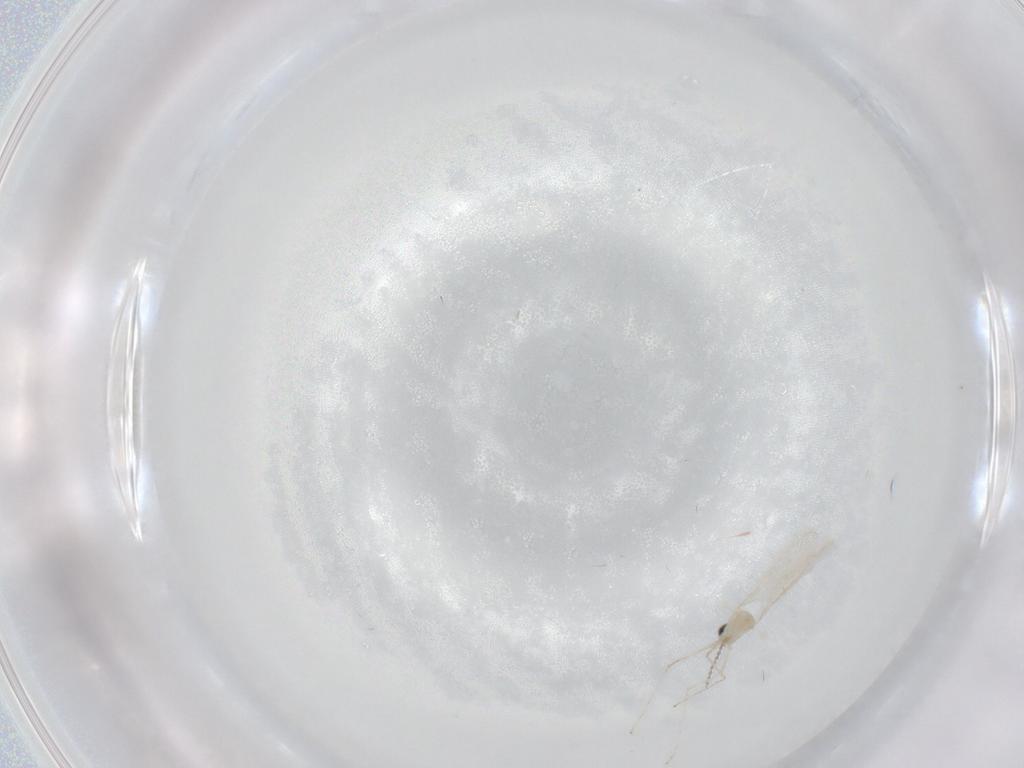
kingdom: Animalia
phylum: Arthropoda
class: Insecta
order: Diptera
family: Cecidomyiidae
